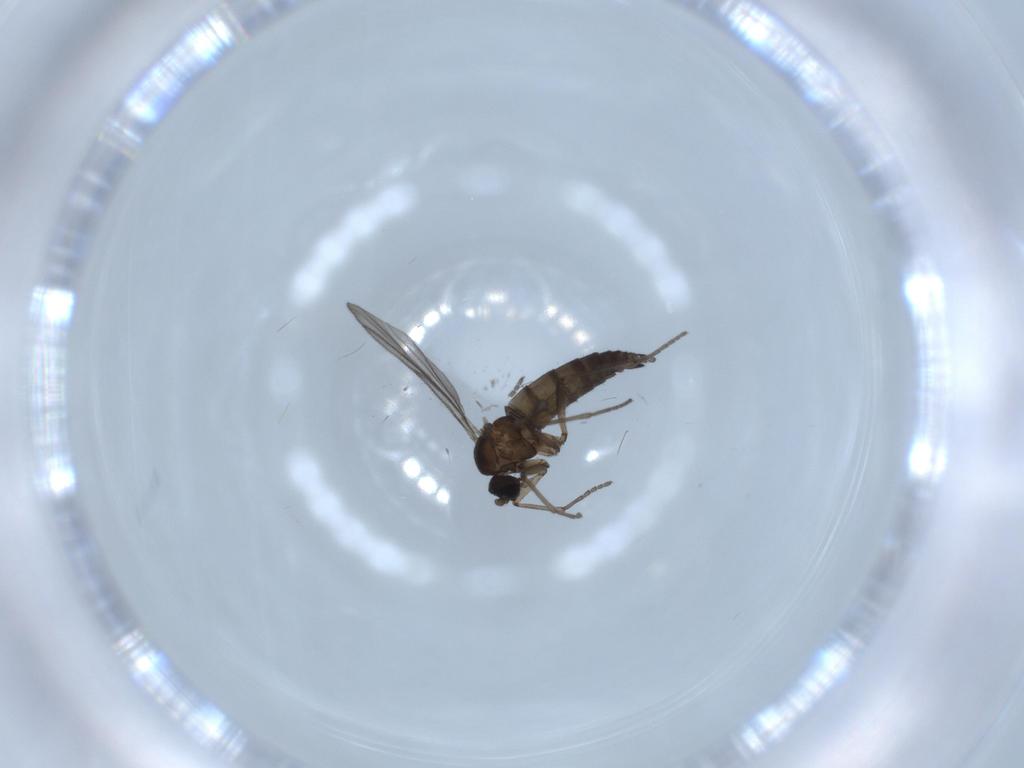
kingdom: Animalia
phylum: Arthropoda
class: Insecta
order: Diptera
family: Sciaridae
